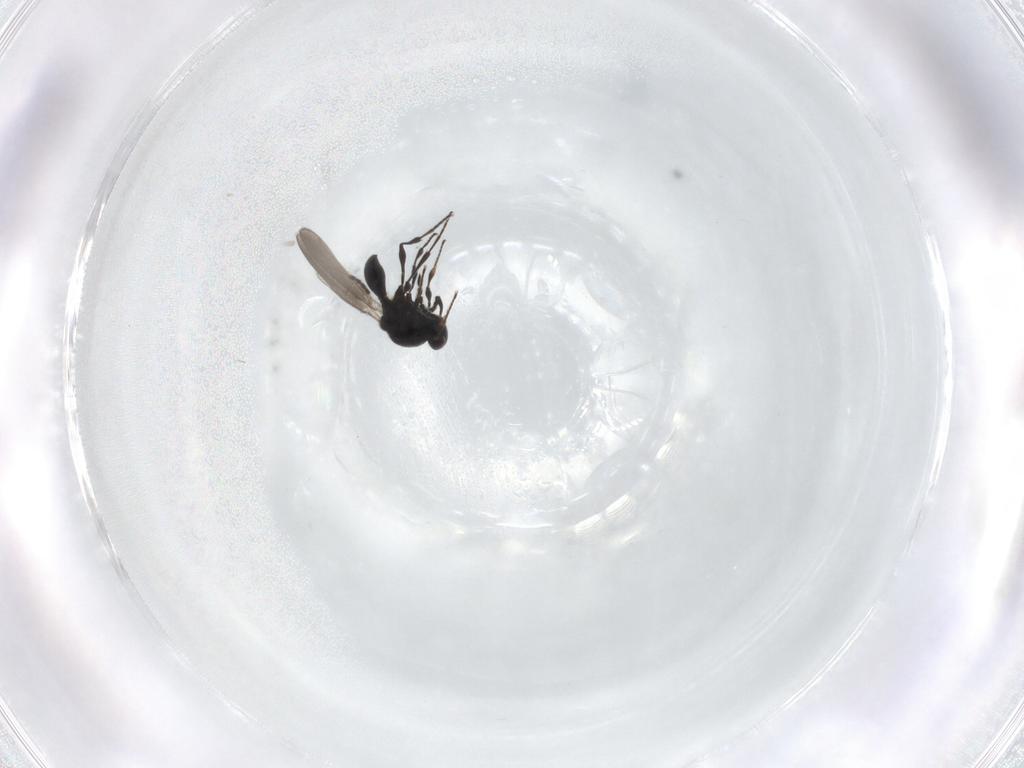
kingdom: Animalia
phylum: Arthropoda
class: Insecta
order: Hymenoptera
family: Platygastridae
